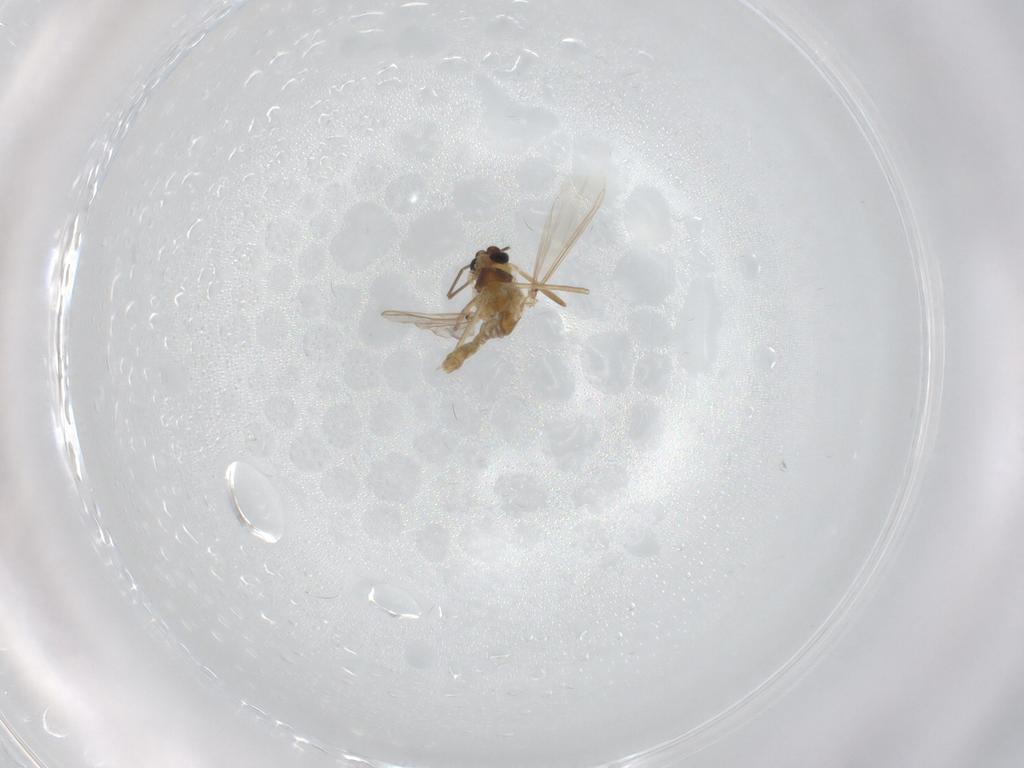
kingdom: Animalia
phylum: Arthropoda
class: Insecta
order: Diptera
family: Chironomidae
